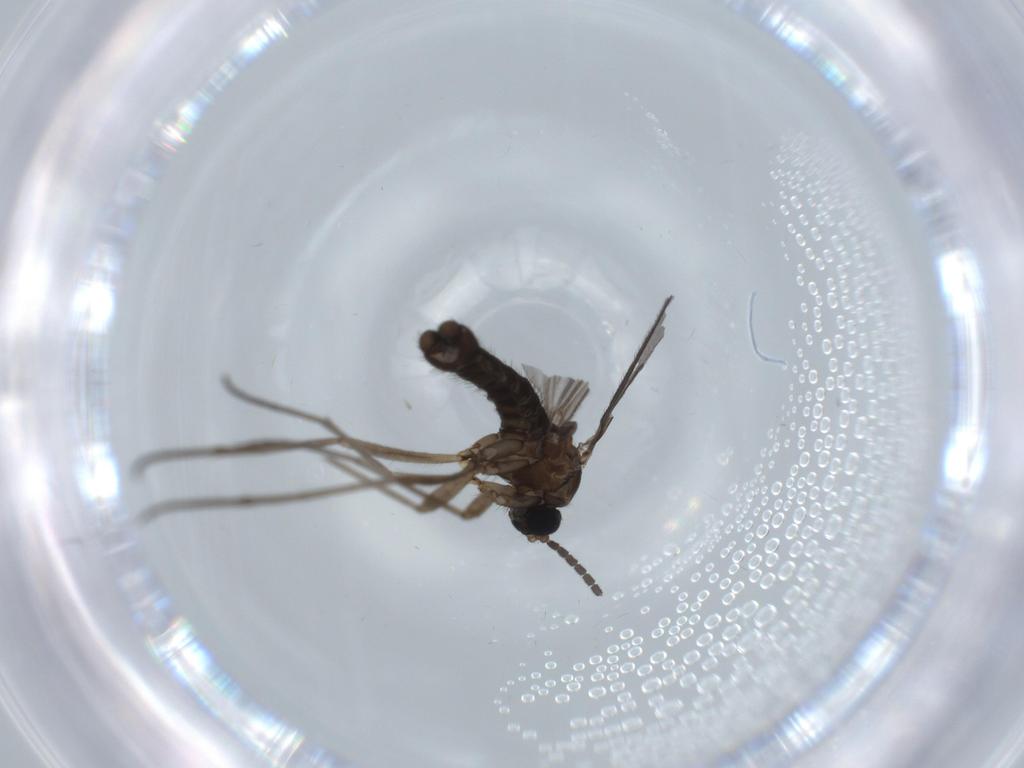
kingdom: Animalia
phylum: Arthropoda
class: Insecta
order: Diptera
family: Sciaridae
